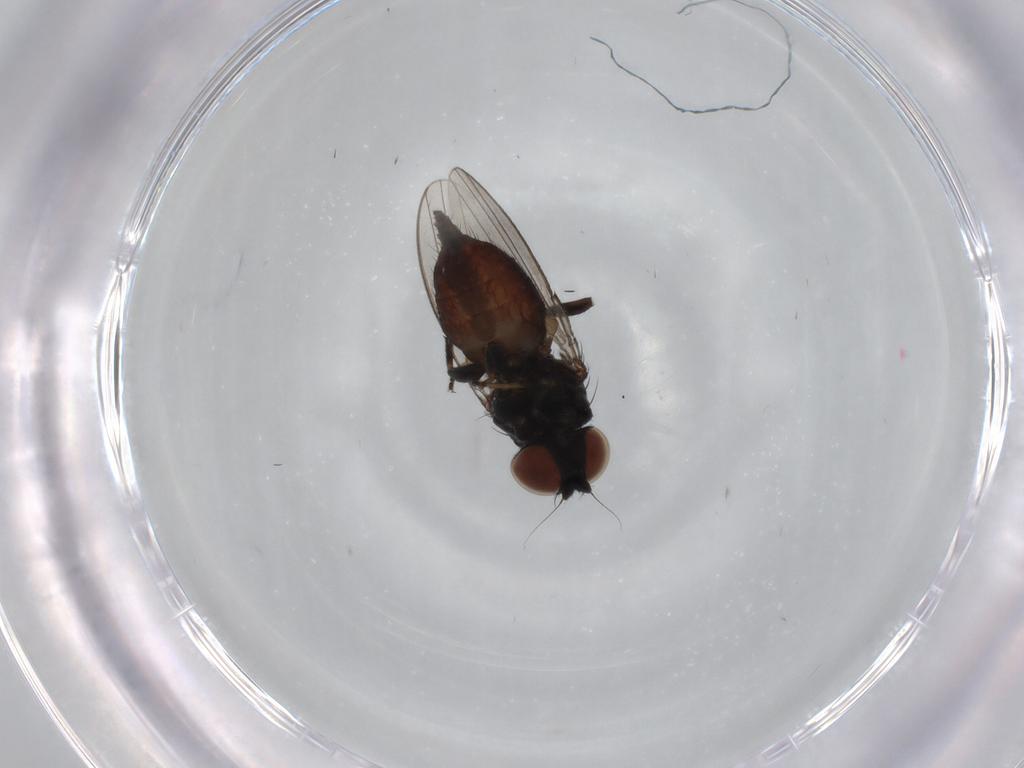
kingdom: Animalia
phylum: Arthropoda
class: Insecta
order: Diptera
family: Milichiidae
